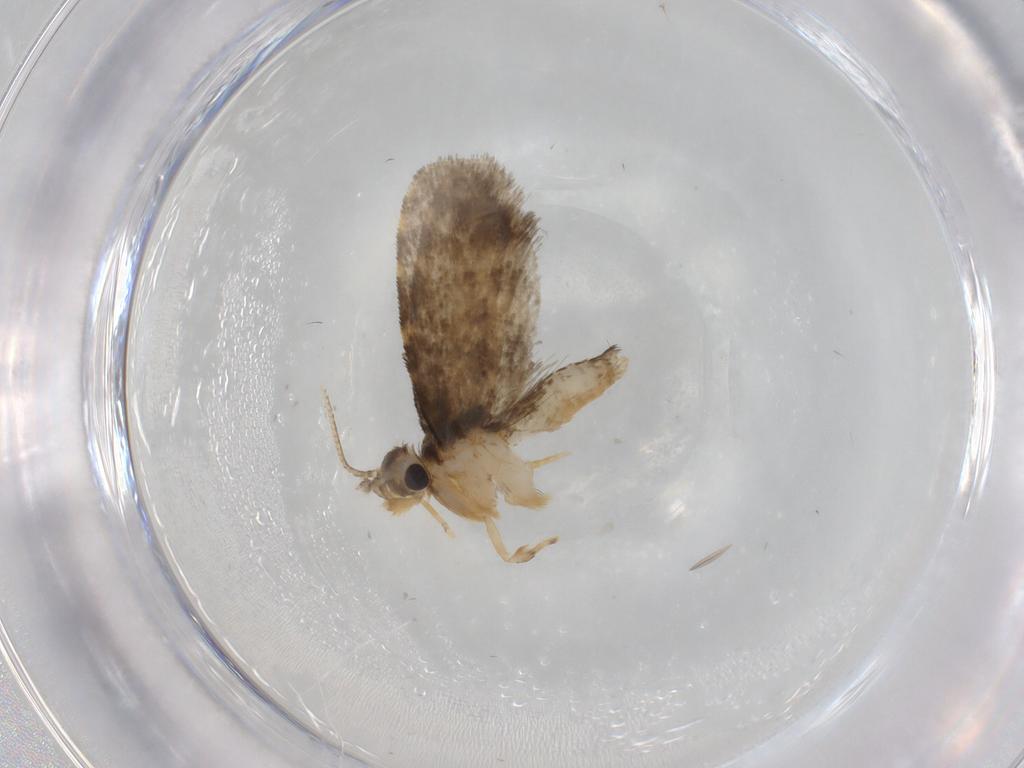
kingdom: Animalia
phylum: Arthropoda
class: Insecta
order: Lepidoptera
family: Psychidae
